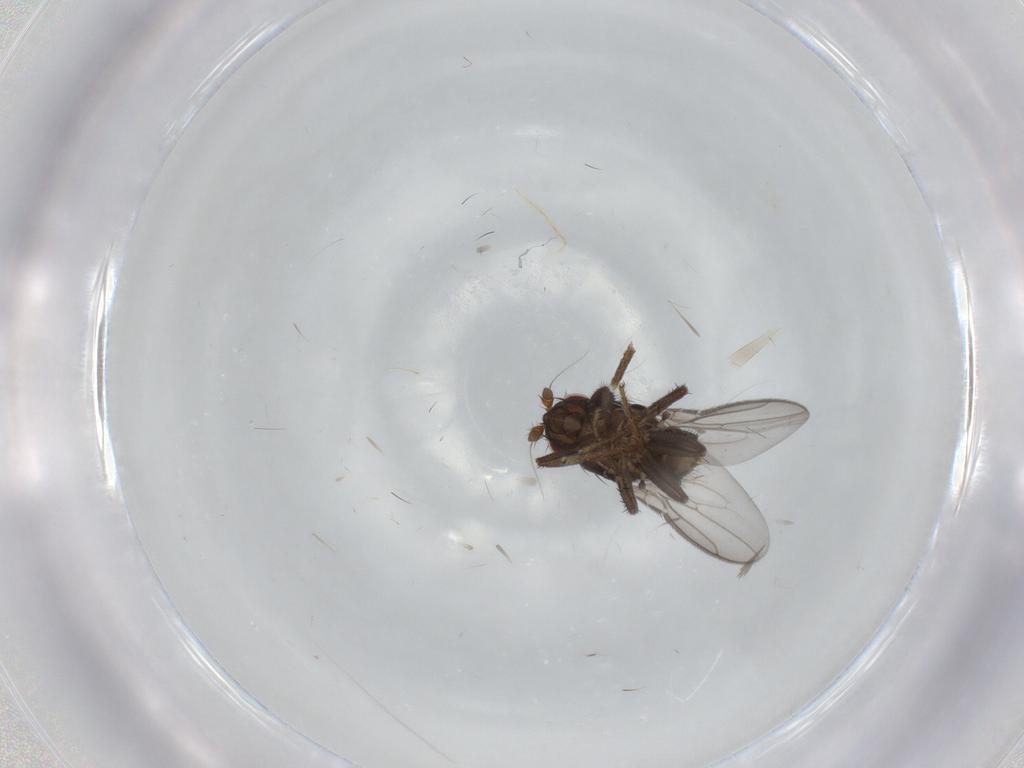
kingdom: Animalia
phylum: Arthropoda
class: Insecta
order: Diptera
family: Sphaeroceridae
